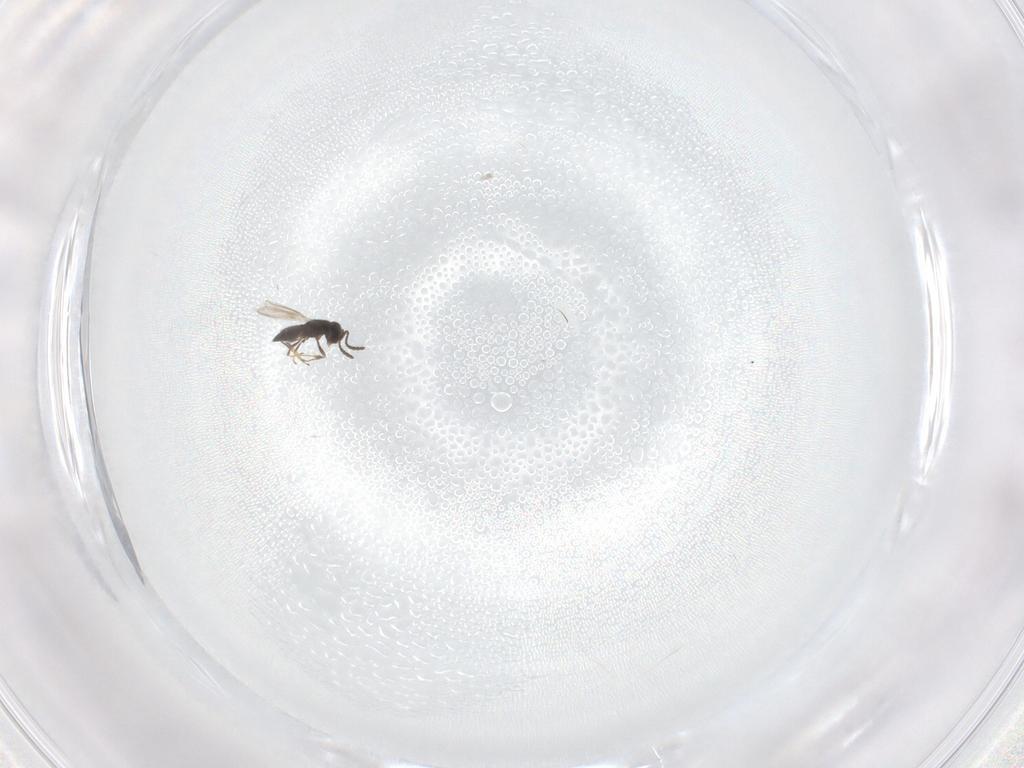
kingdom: Animalia
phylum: Arthropoda
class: Insecta
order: Hymenoptera
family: Scelionidae
